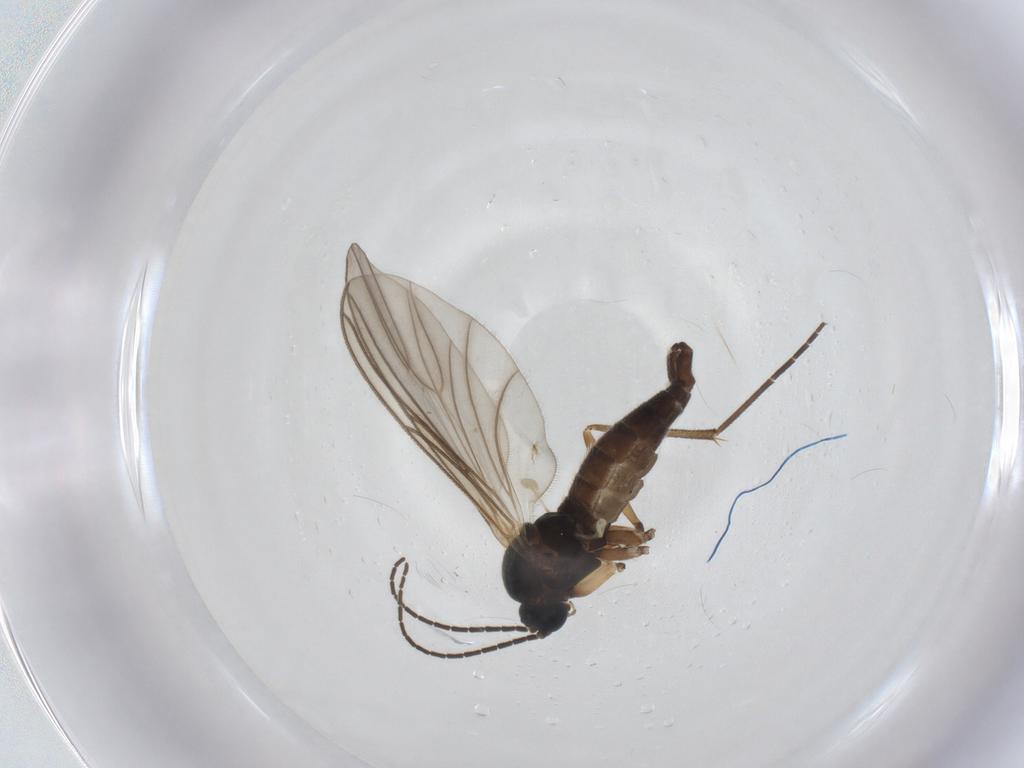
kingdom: Animalia
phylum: Arthropoda
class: Insecta
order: Diptera
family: Sciaridae
